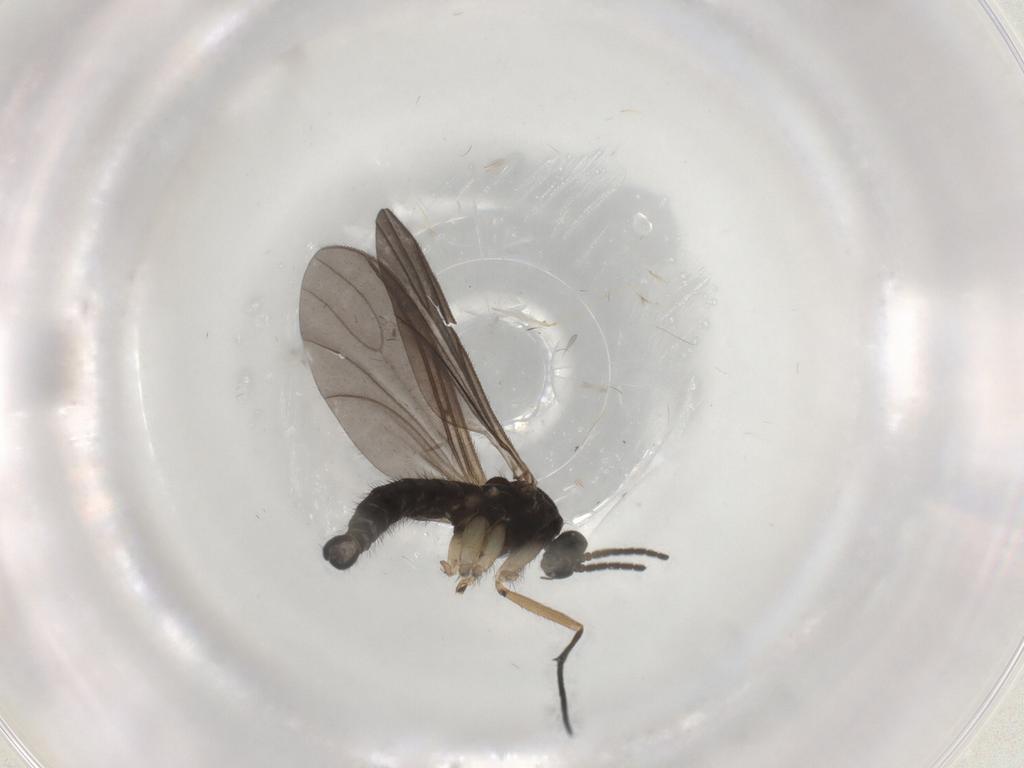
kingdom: Animalia
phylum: Arthropoda
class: Insecta
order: Diptera
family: Sciaridae
